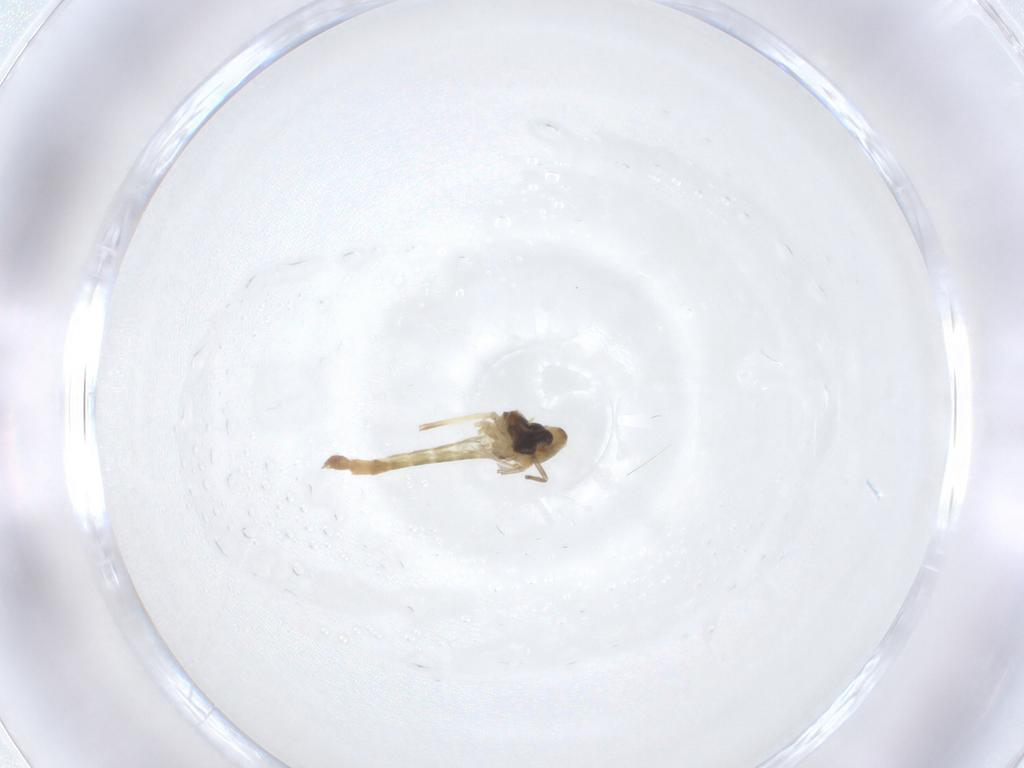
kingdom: Animalia
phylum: Arthropoda
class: Insecta
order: Diptera
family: Chironomidae
